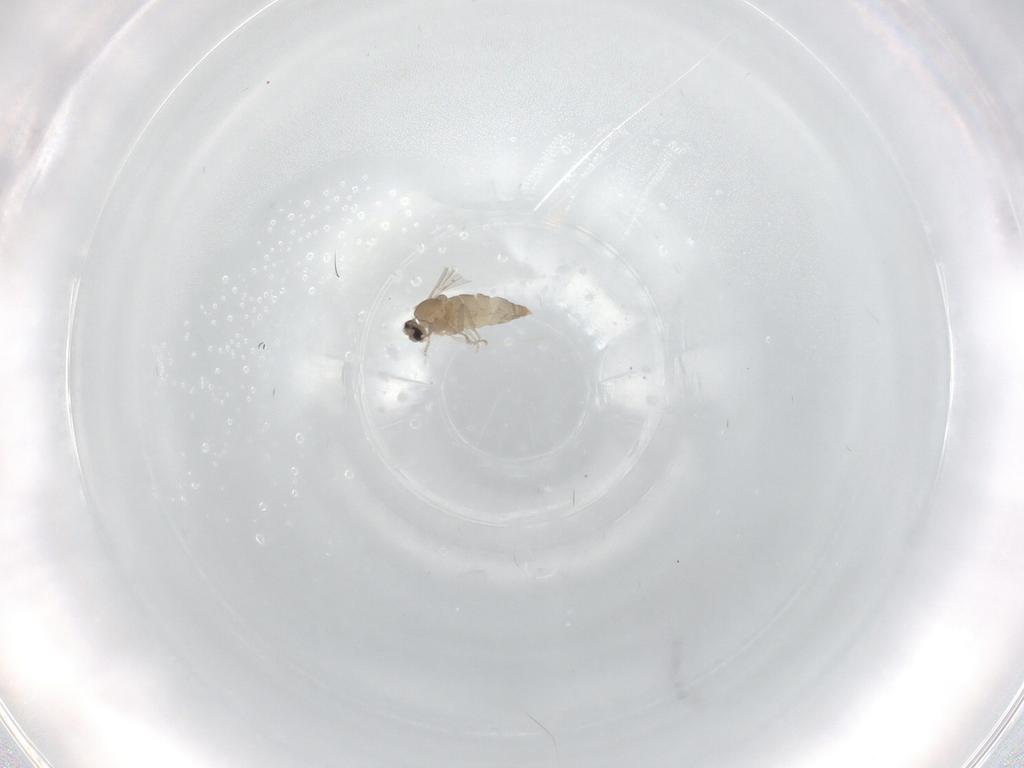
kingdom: Animalia
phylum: Arthropoda
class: Insecta
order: Diptera
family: Cecidomyiidae
